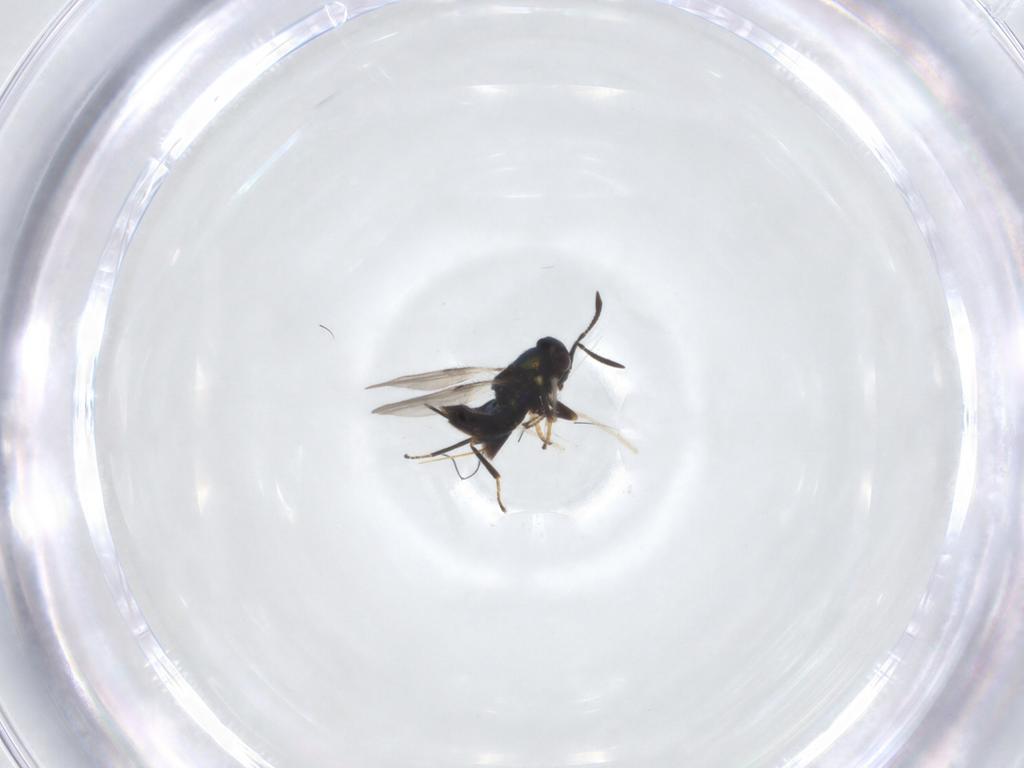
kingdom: Animalia
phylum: Arthropoda
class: Insecta
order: Hymenoptera
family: Encyrtidae
